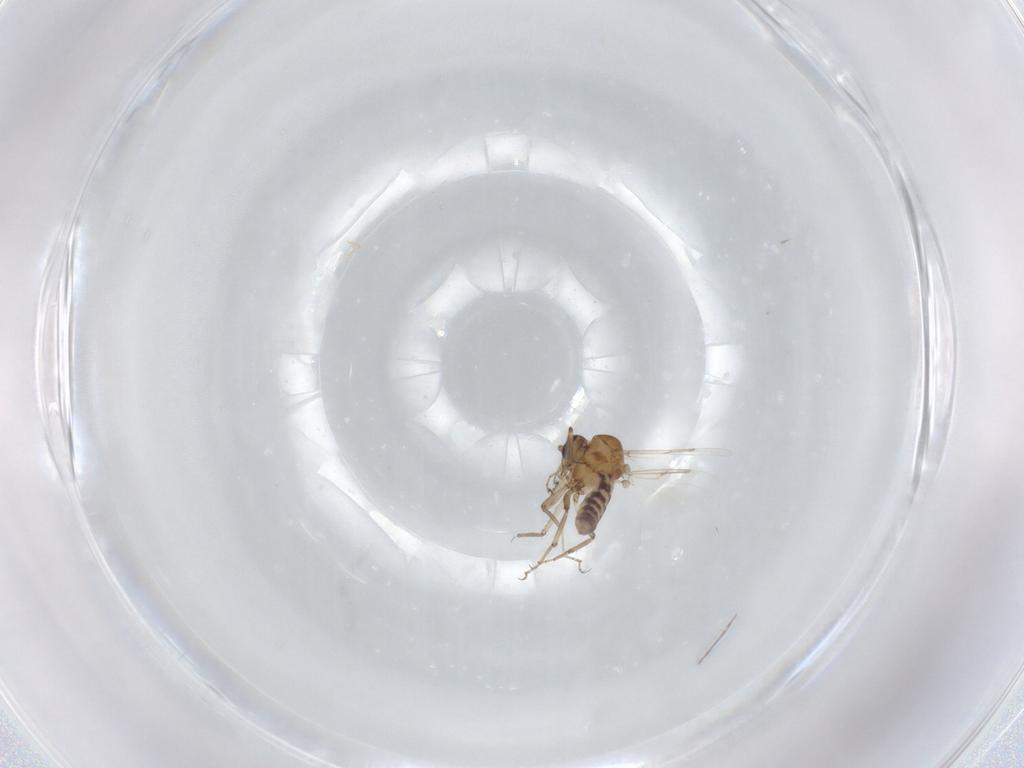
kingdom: Animalia
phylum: Arthropoda
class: Insecta
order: Diptera
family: Ceratopogonidae
